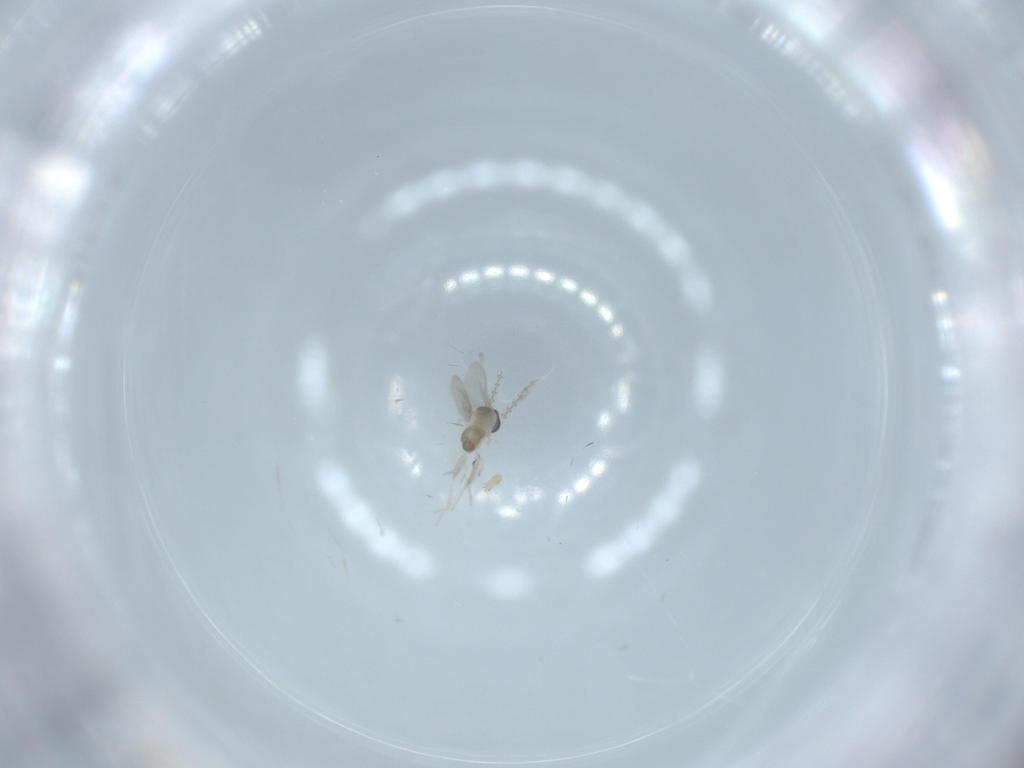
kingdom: Animalia
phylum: Arthropoda
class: Insecta
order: Diptera
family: Cecidomyiidae
